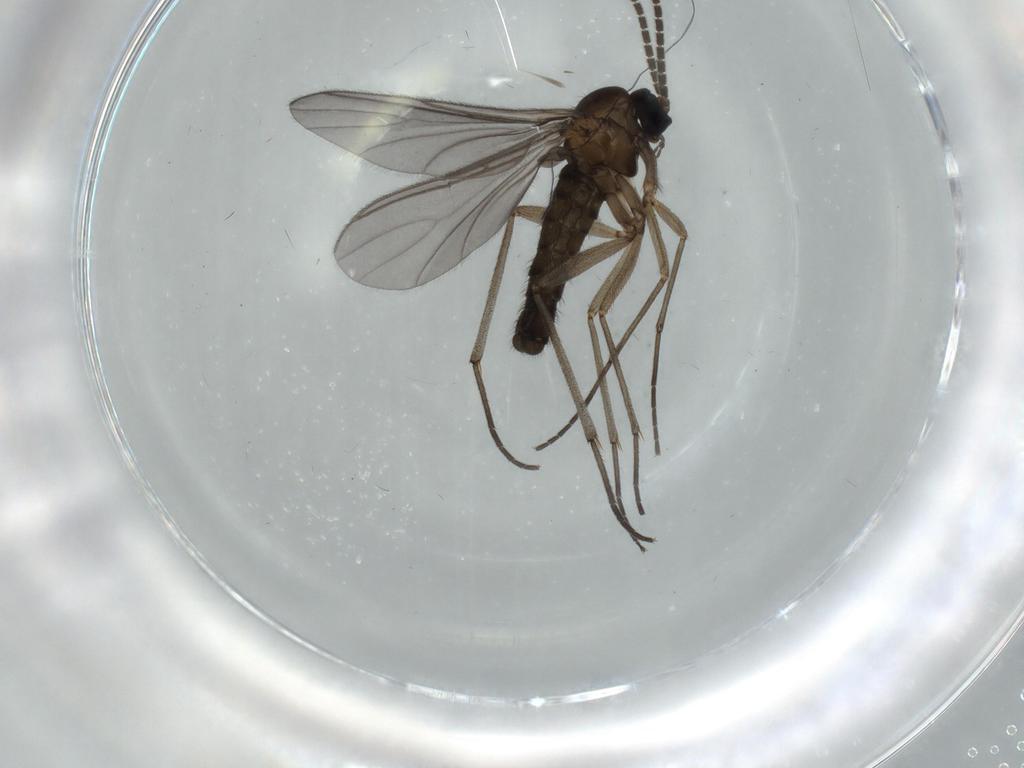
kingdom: Animalia
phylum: Arthropoda
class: Insecta
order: Diptera
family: Sciaridae
